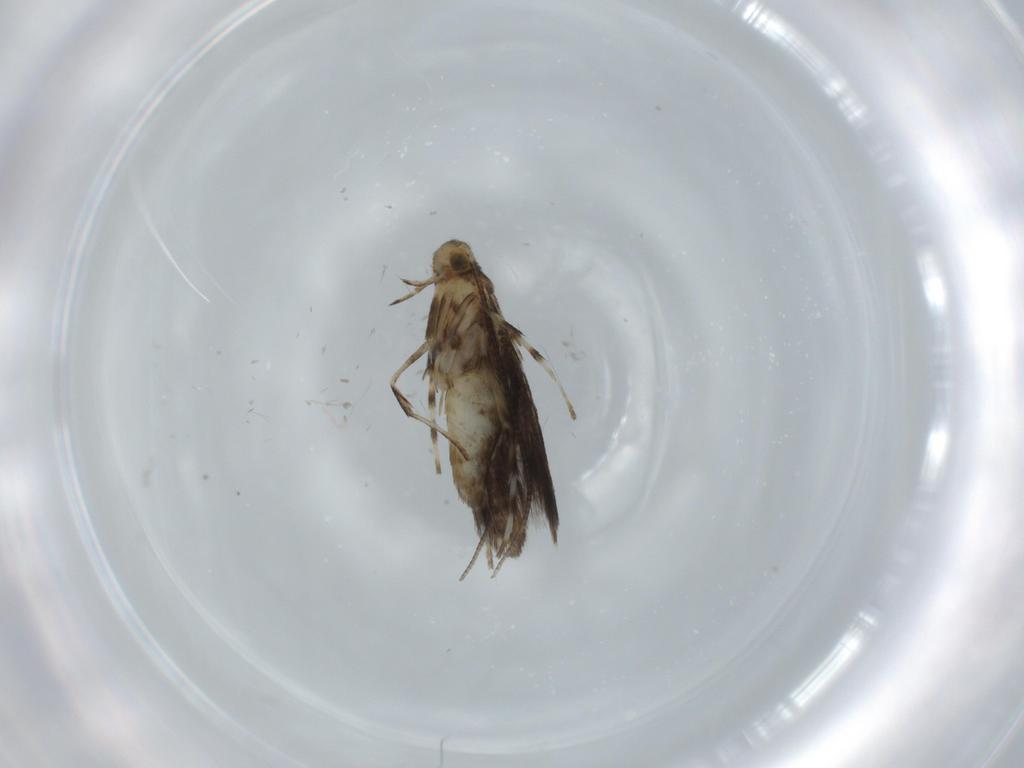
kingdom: Animalia
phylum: Arthropoda
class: Insecta
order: Lepidoptera
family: Gracillariidae
